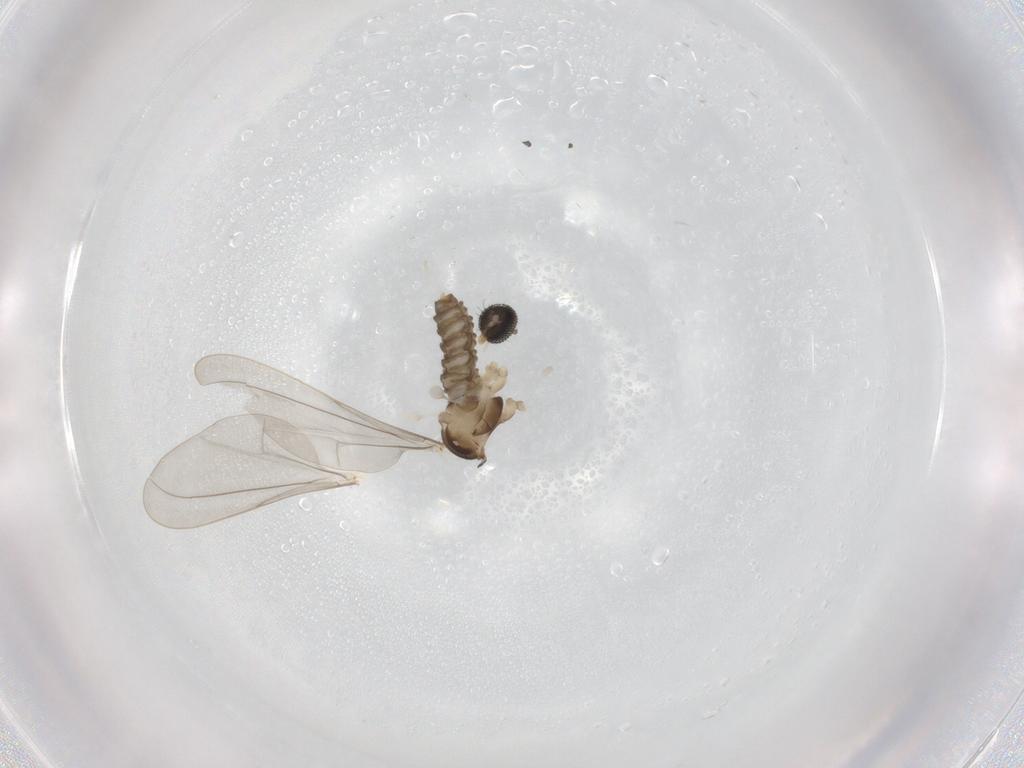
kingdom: Animalia
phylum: Arthropoda
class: Insecta
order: Diptera
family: Cecidomyiidae
